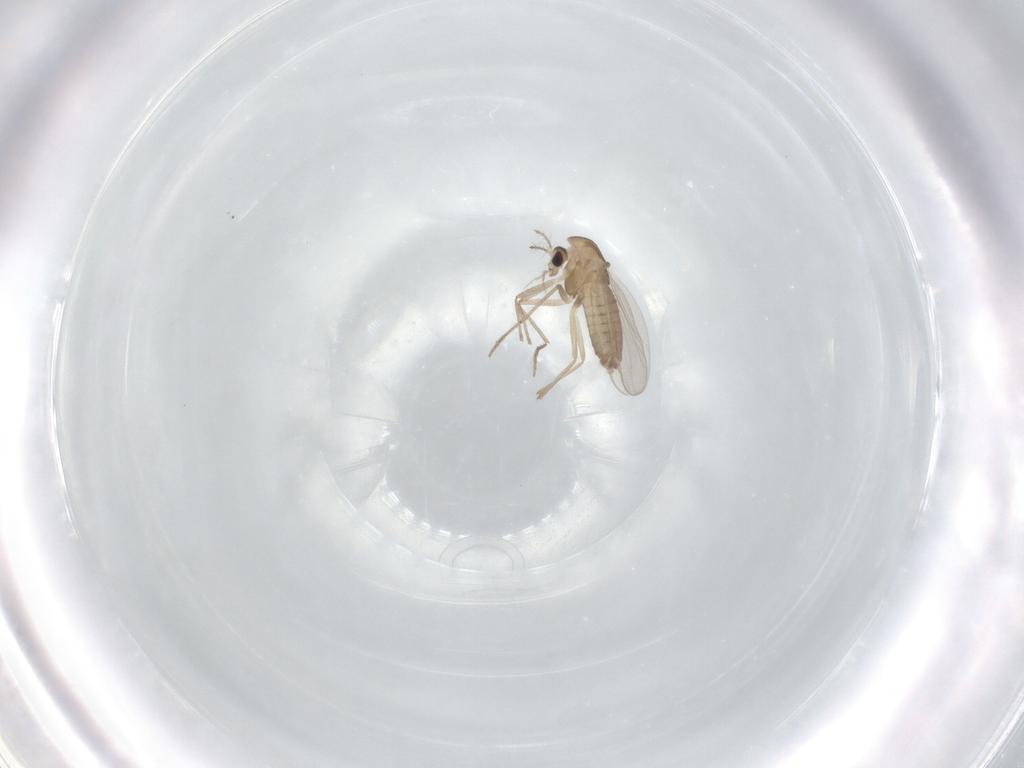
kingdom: Animalia
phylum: Arthropoda
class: Insecta
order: Diptera
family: Chironomidae
